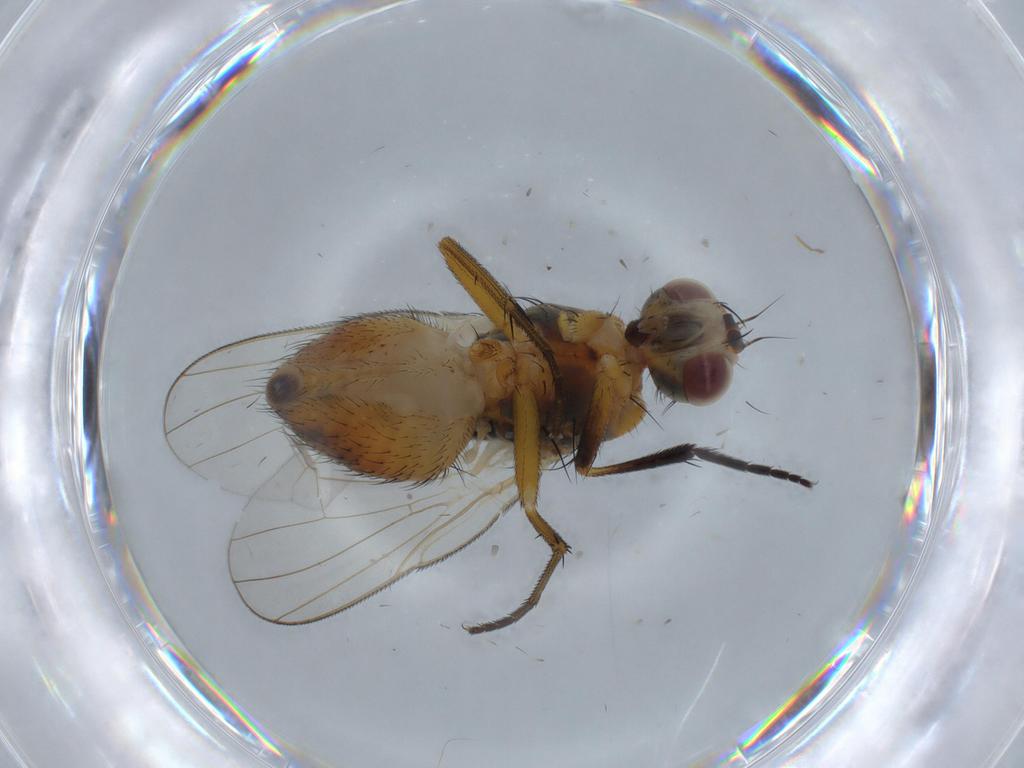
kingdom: Animalia
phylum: Arthropoda
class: Insecta
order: Diptera
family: Muscidae
